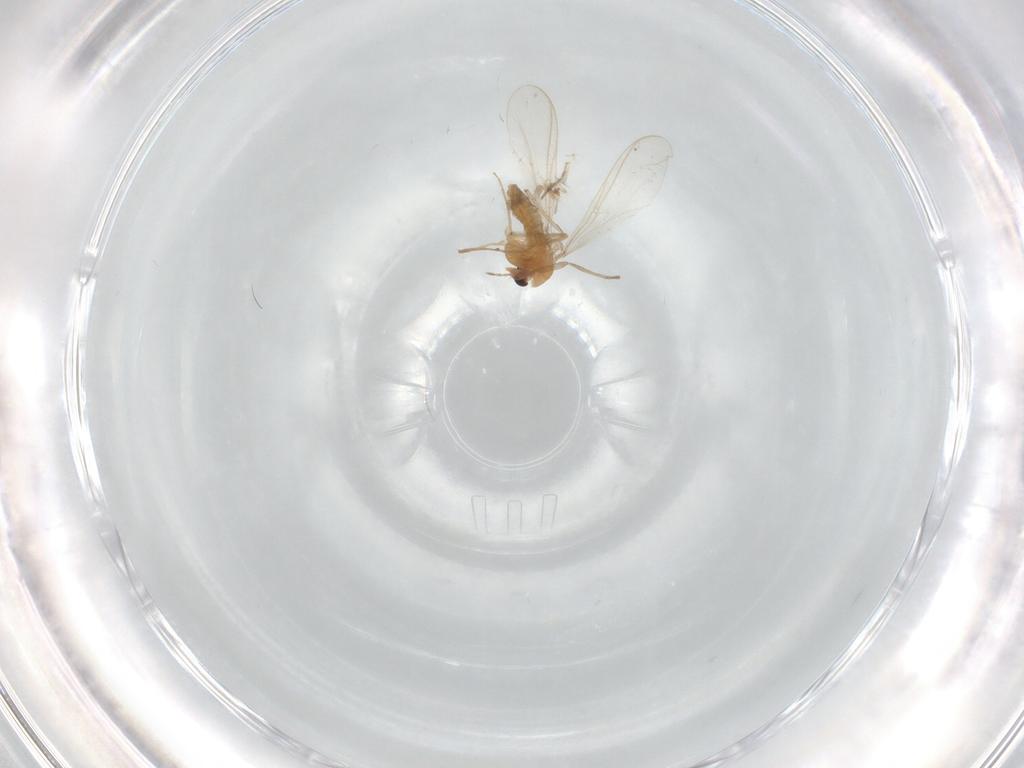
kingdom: Animalia
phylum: Arthropoda
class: Insecta
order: Diptera
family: Chironomidae
